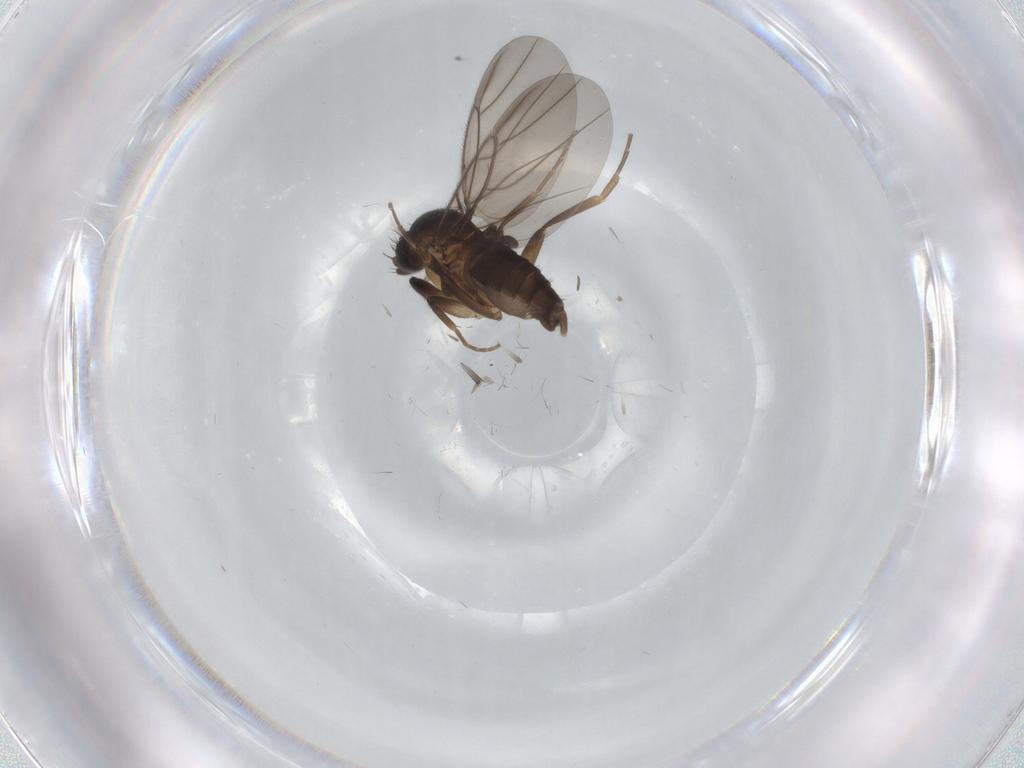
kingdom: Animalia
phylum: Arthropoda
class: Insecta
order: Diptera
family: Phoridae
